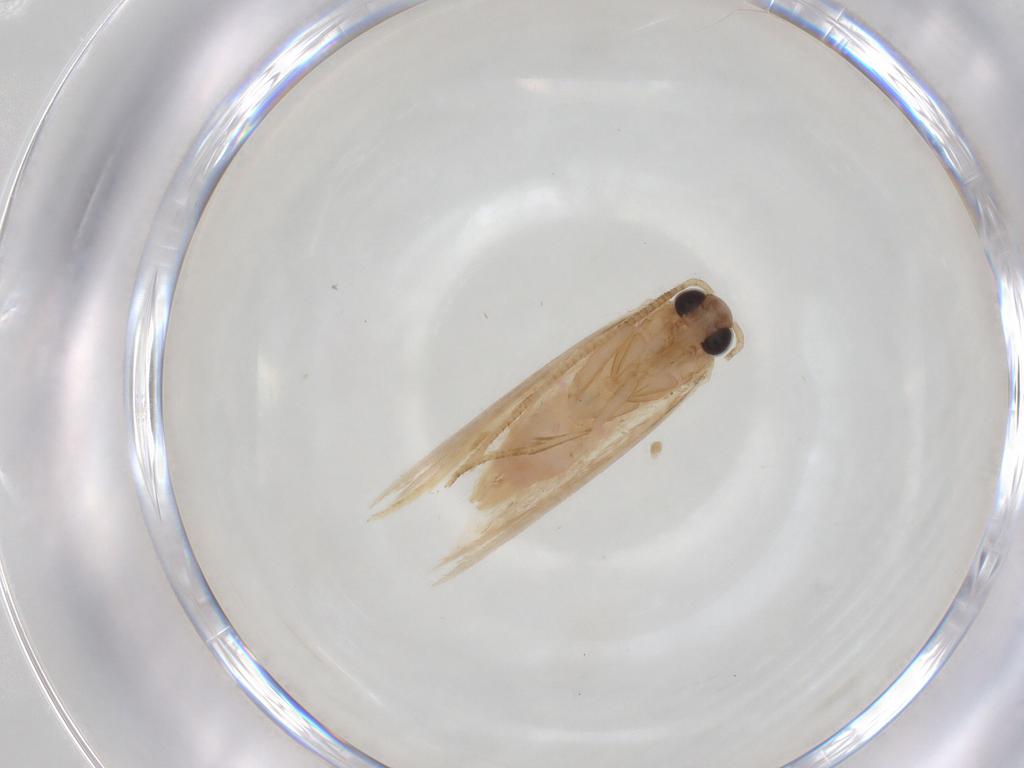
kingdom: Animalia
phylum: Arthropoda
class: Insecta
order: Lepidoptera
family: Autostichidae
